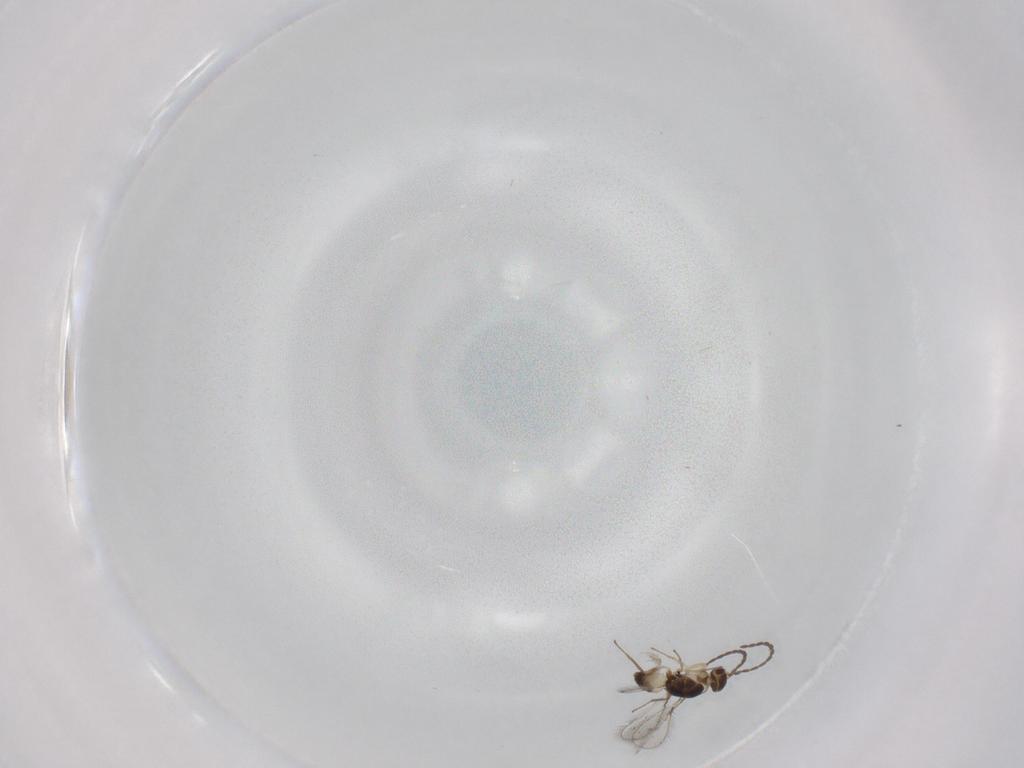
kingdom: Animalia
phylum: Arthropoda
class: Insecta
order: Hymenoptera
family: Mymaridae
